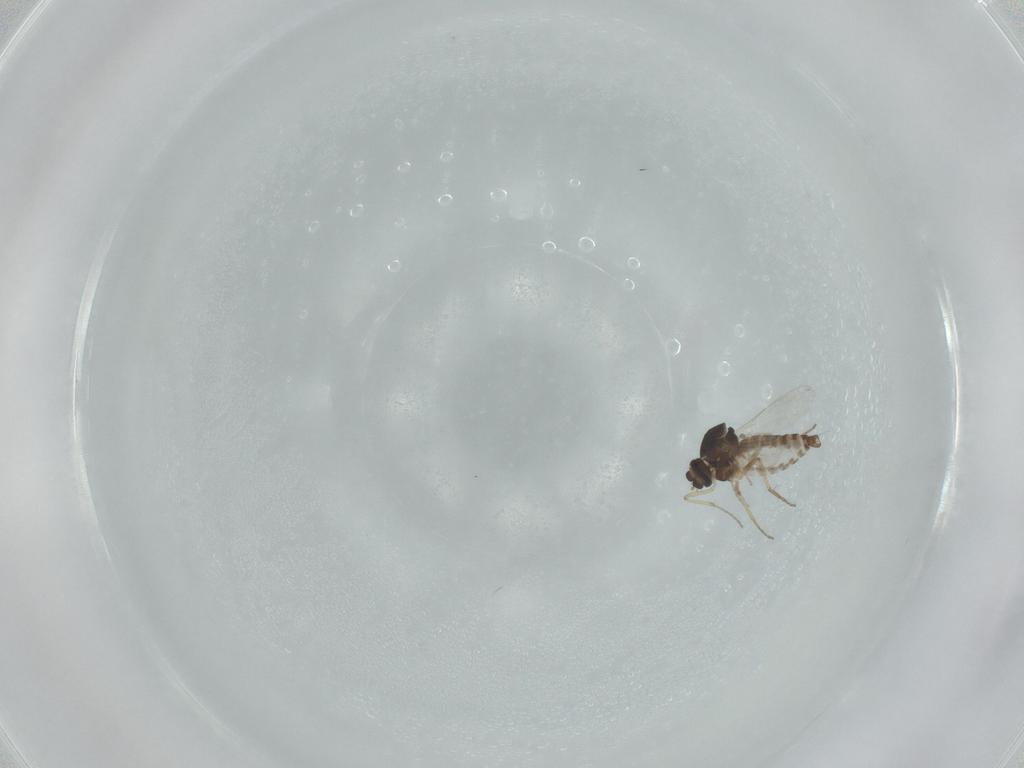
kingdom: Animalia
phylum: Arthropoda
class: Insecta
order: Diptera
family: Ceratopogonidae
